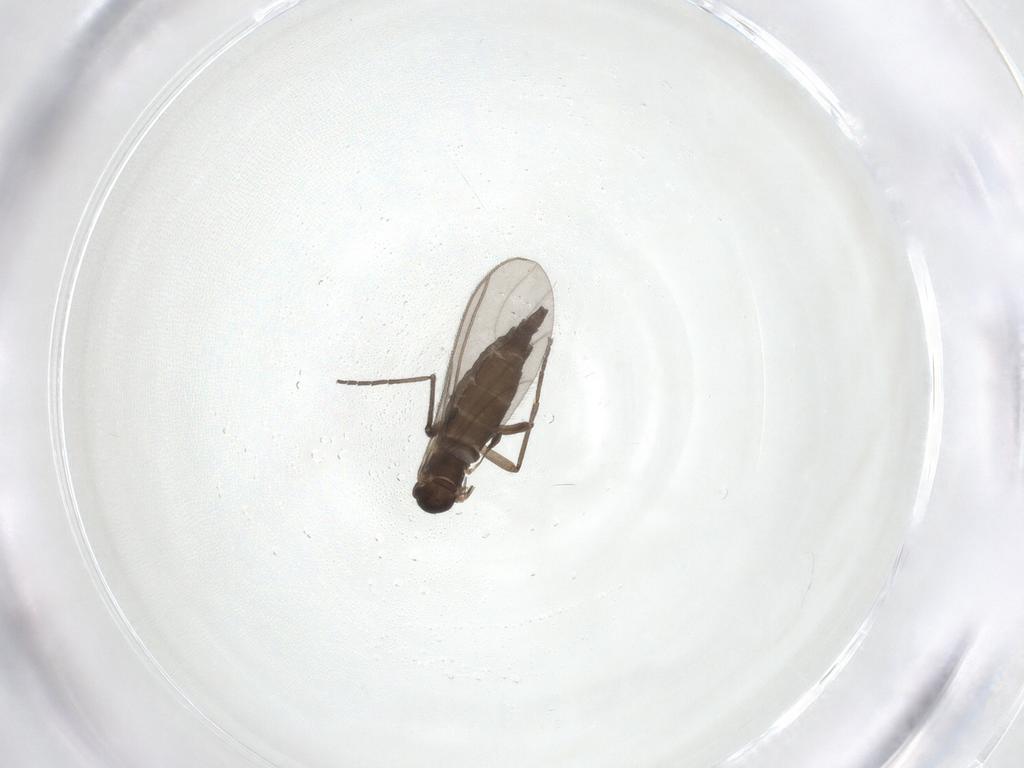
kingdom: Animalia
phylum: Arthropoda
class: Insecta
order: Diptera
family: Sciaridae
